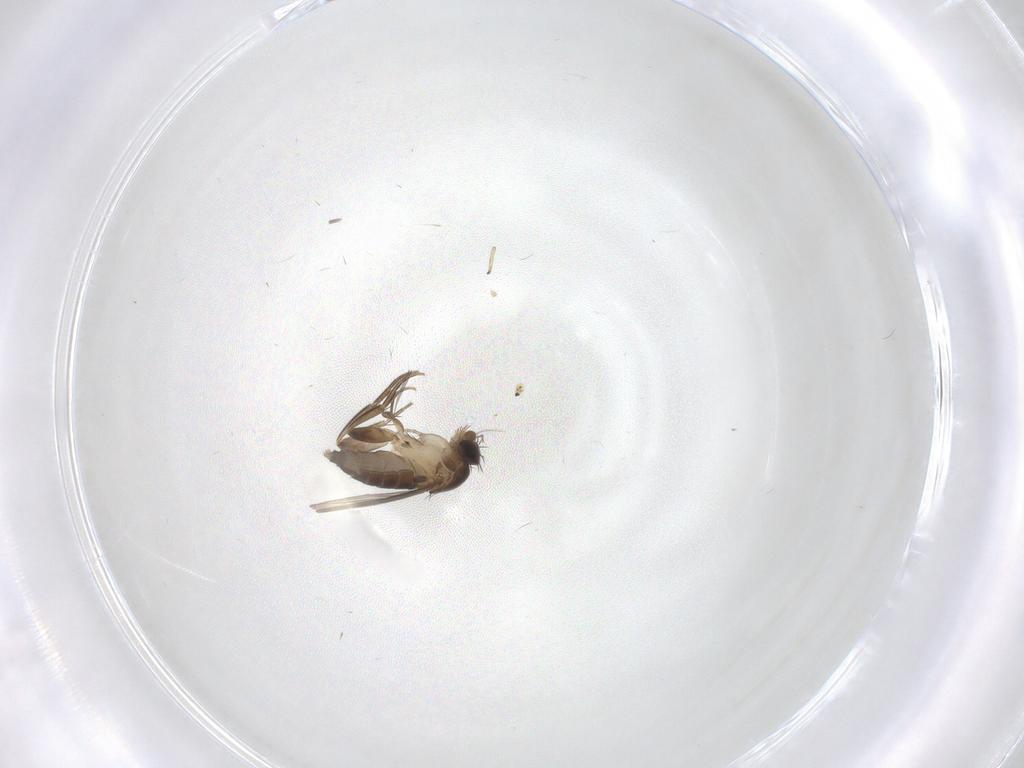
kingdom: Animalia
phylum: Arthropoda
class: Insecta
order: Diptera
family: Phoridae
